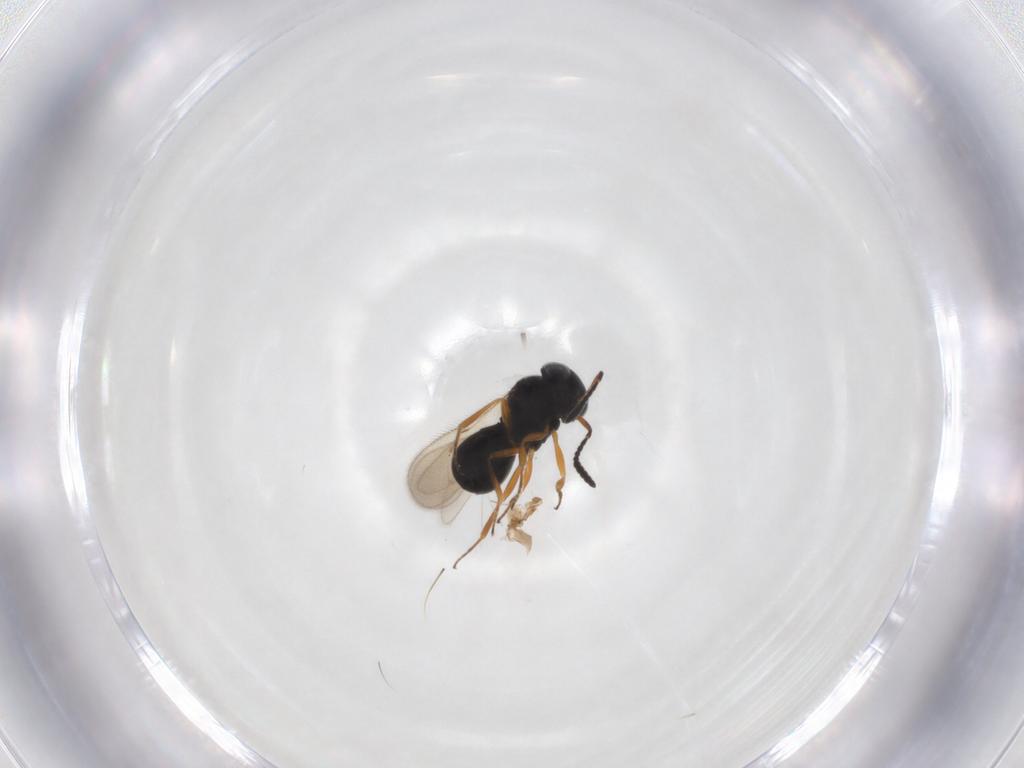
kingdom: Animalia
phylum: Arthropoda
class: Insecta
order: Hymenoptera
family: Scelionidae
